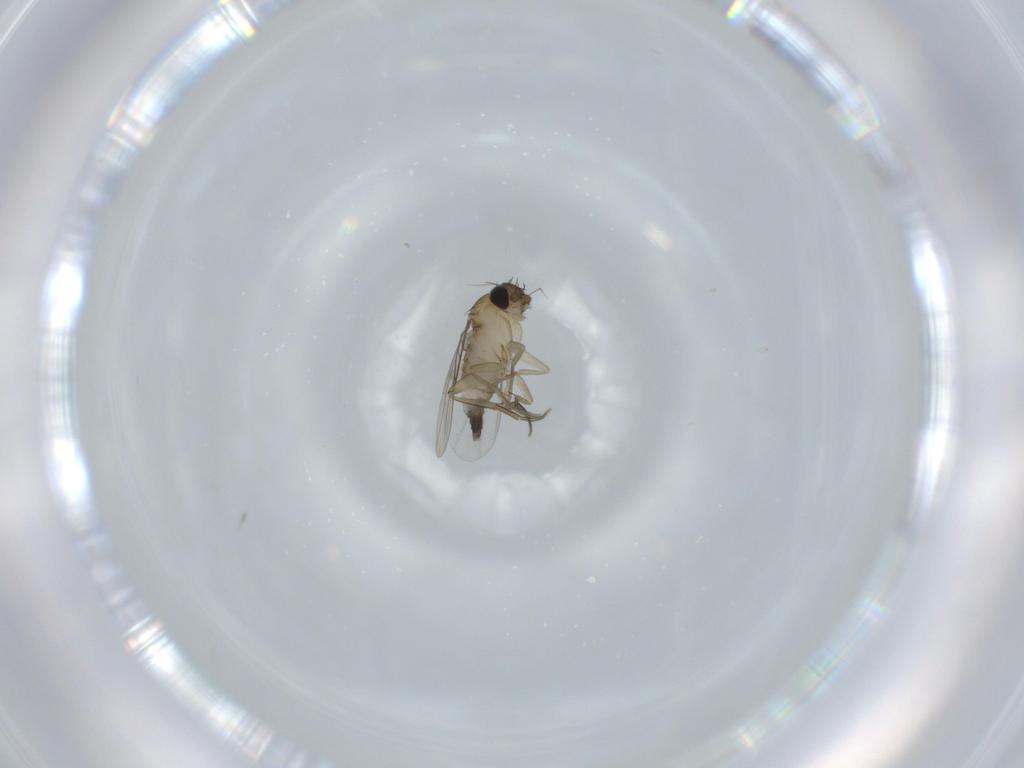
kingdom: Animalia
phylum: Arthropoda
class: Insecta
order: Diptera
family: Phoridae
